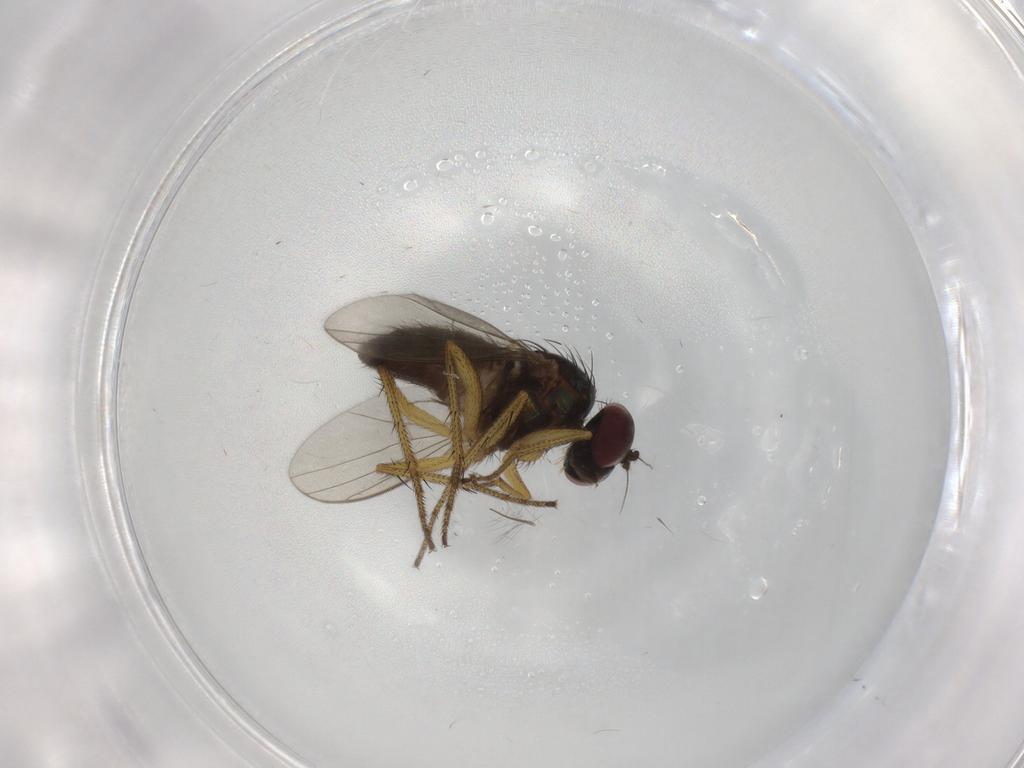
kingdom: Animalia
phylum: Arthropoda
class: Insecta
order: Diptera
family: Dolichopodidae
